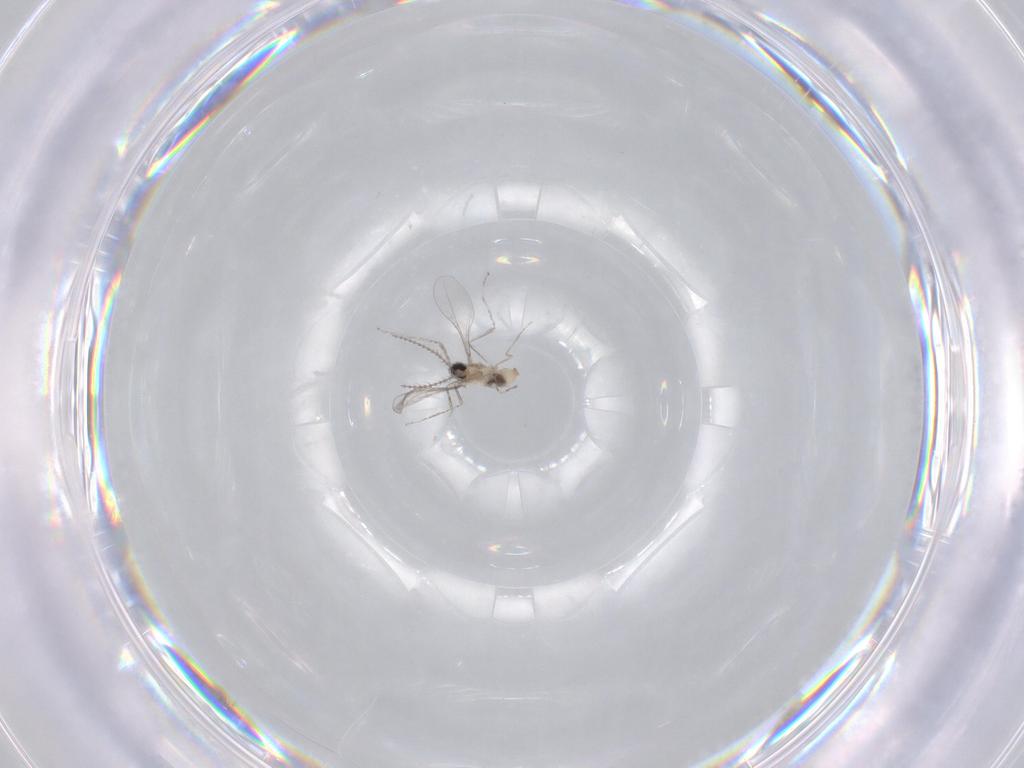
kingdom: Animalia
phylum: Arthropoda
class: Insecta
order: Diptera
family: Cecidomyiidae
